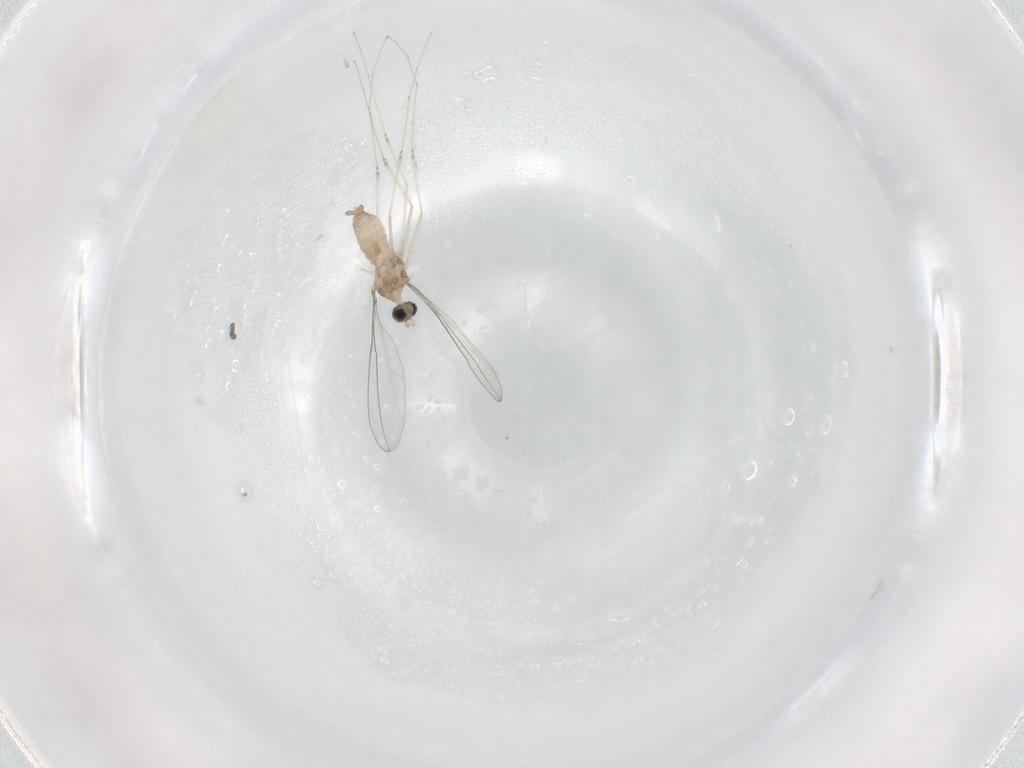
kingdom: Animalia
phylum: Arthropoda
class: Insecta
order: Diptera
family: Cecidomyiidae
